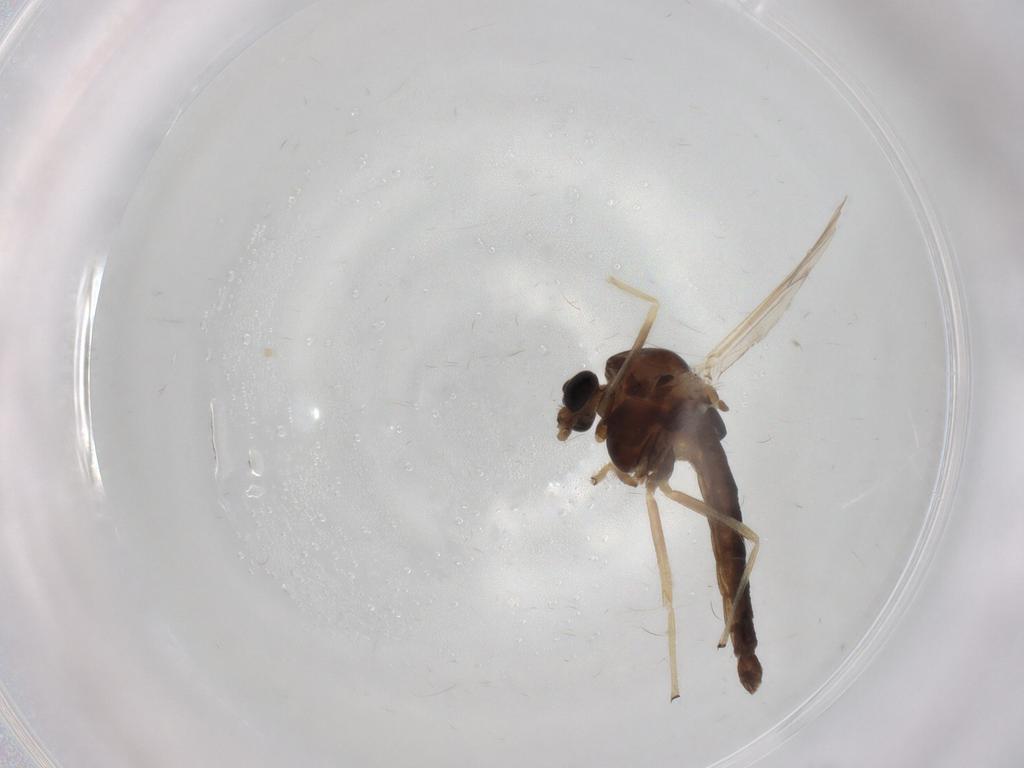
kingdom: Animalia
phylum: Arthropoda
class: Insecta
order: Diptera
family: Chironomidae
